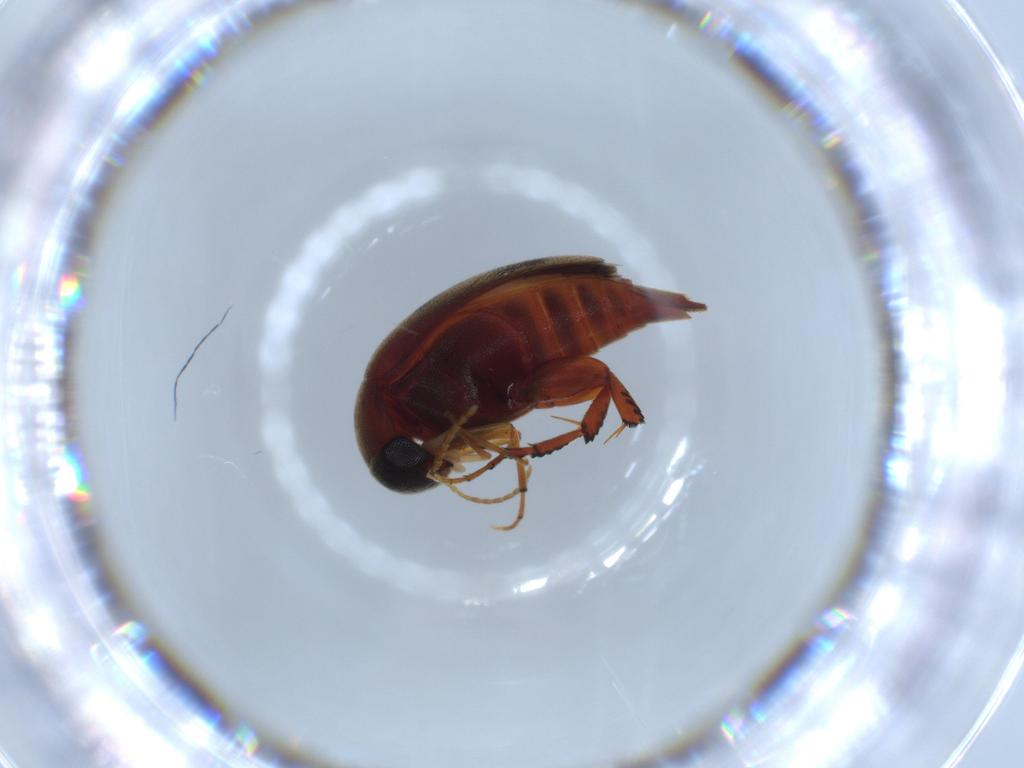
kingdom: Animalia
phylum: Arthropoda
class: Insecta
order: Coleoptera
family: Mordellidae
